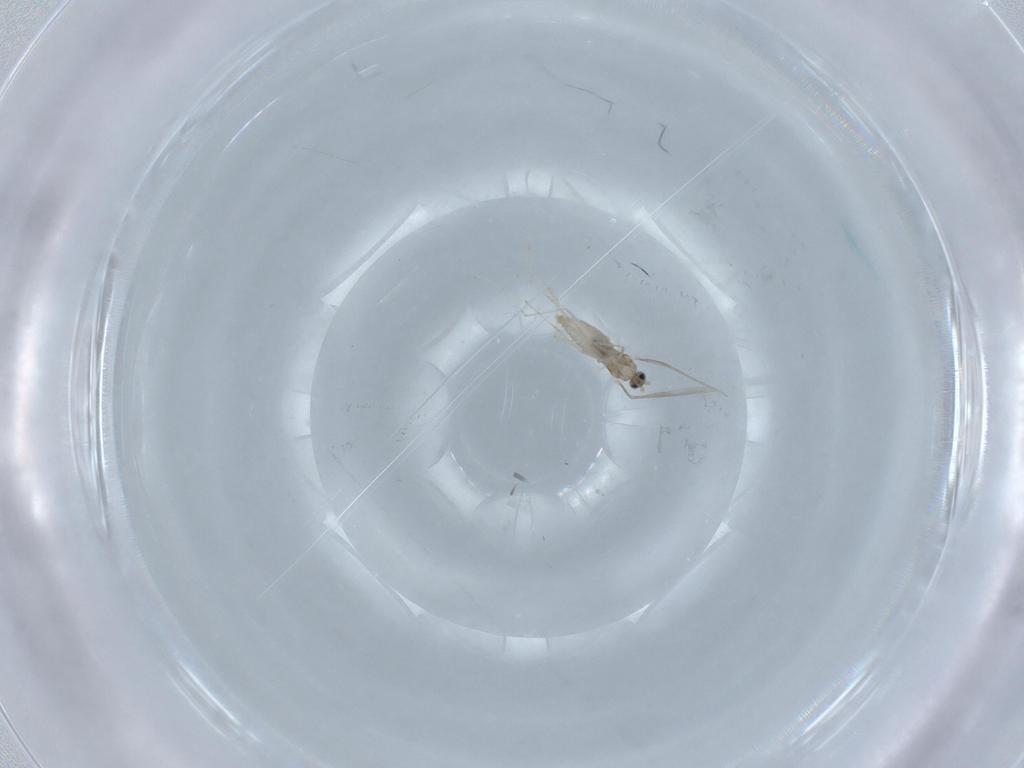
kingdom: Animalia
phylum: Arthropoda
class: Insecta
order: Diptera
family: Cecidomyiidae
